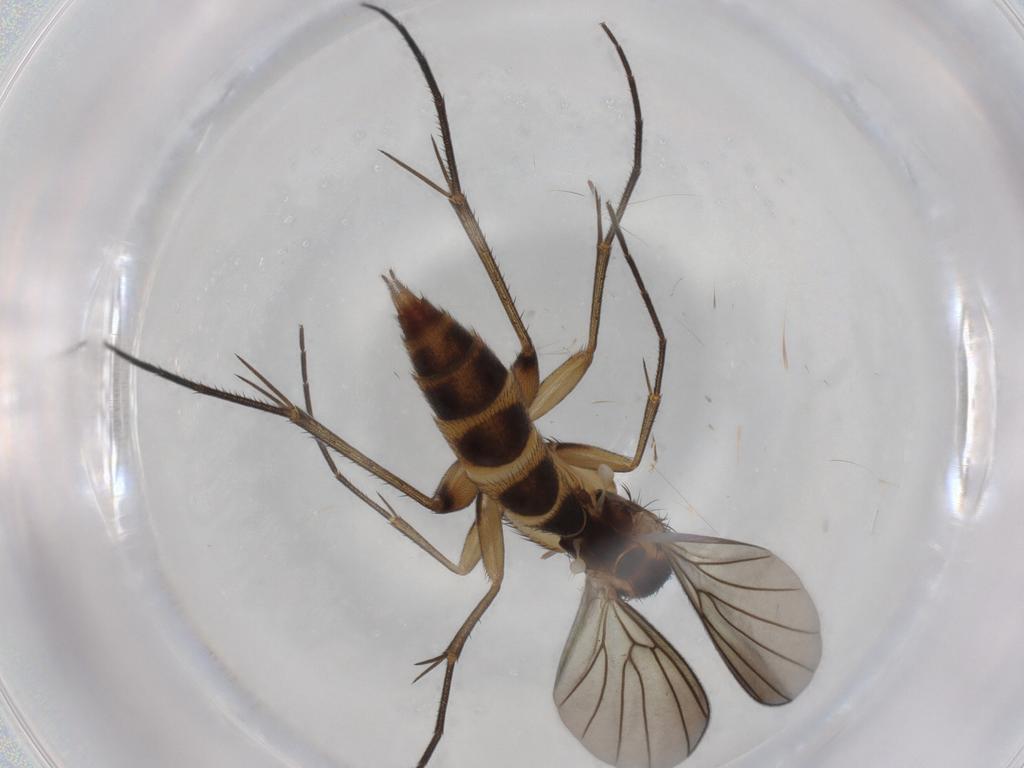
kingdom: Animalia
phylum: Arthropoda
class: Insecta
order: Diptera
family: Mycetophilidae
